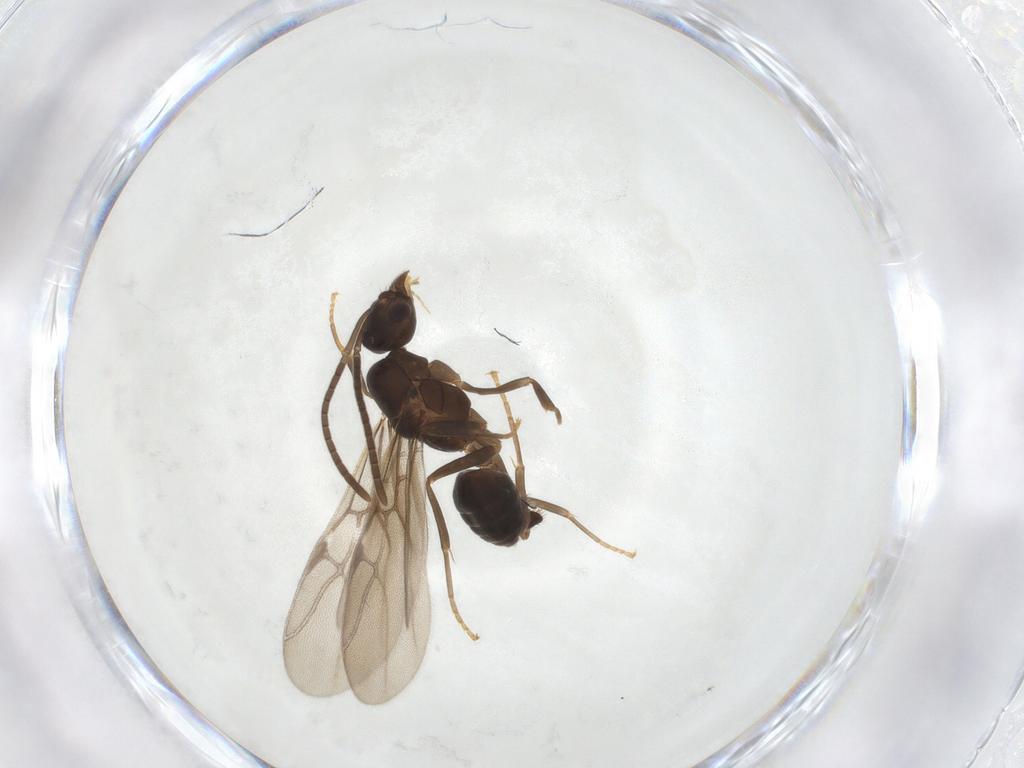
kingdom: Animalia
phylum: Arthropoda
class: Insecta
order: Hymenoptera
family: Formicidae
